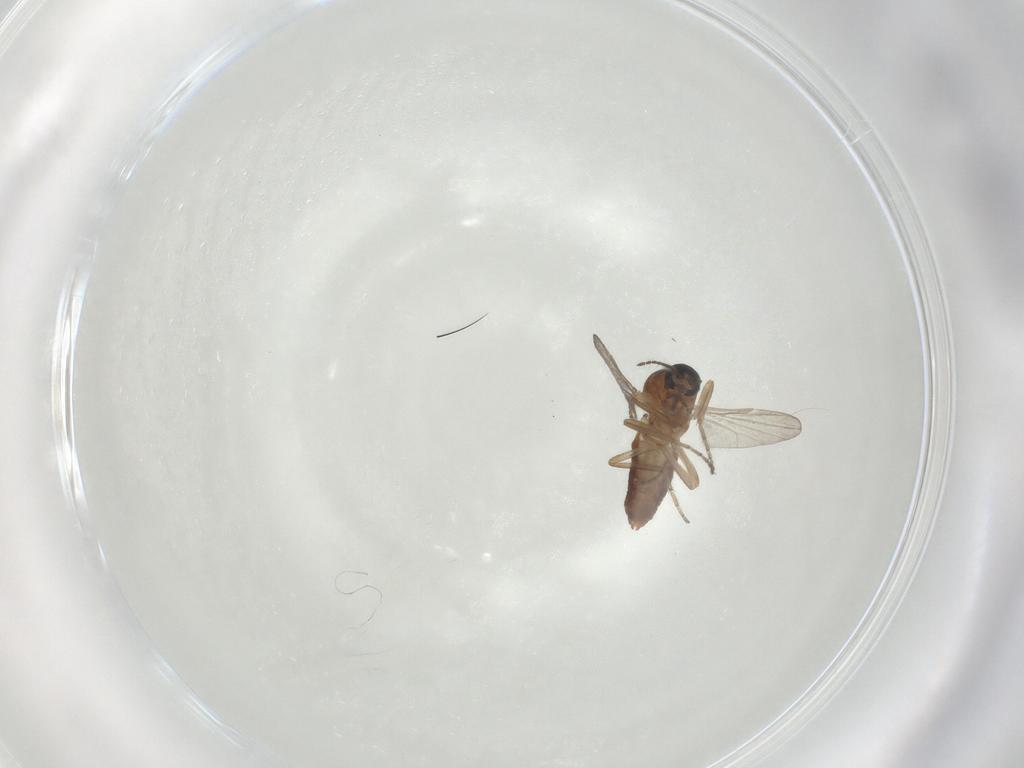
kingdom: Animalia
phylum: Arthropoda
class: Insecta
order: Diptera
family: Ceratopogonidae
